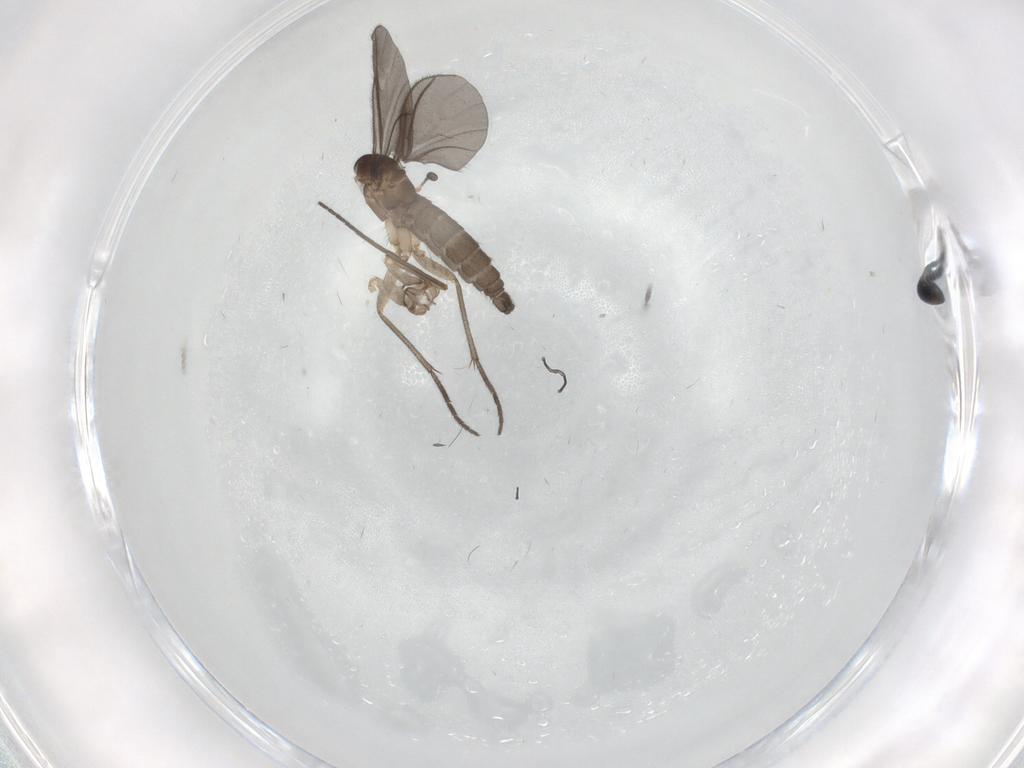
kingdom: Animalia
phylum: Arthropoda
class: Insecta
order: Diptera
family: Sciaridae
